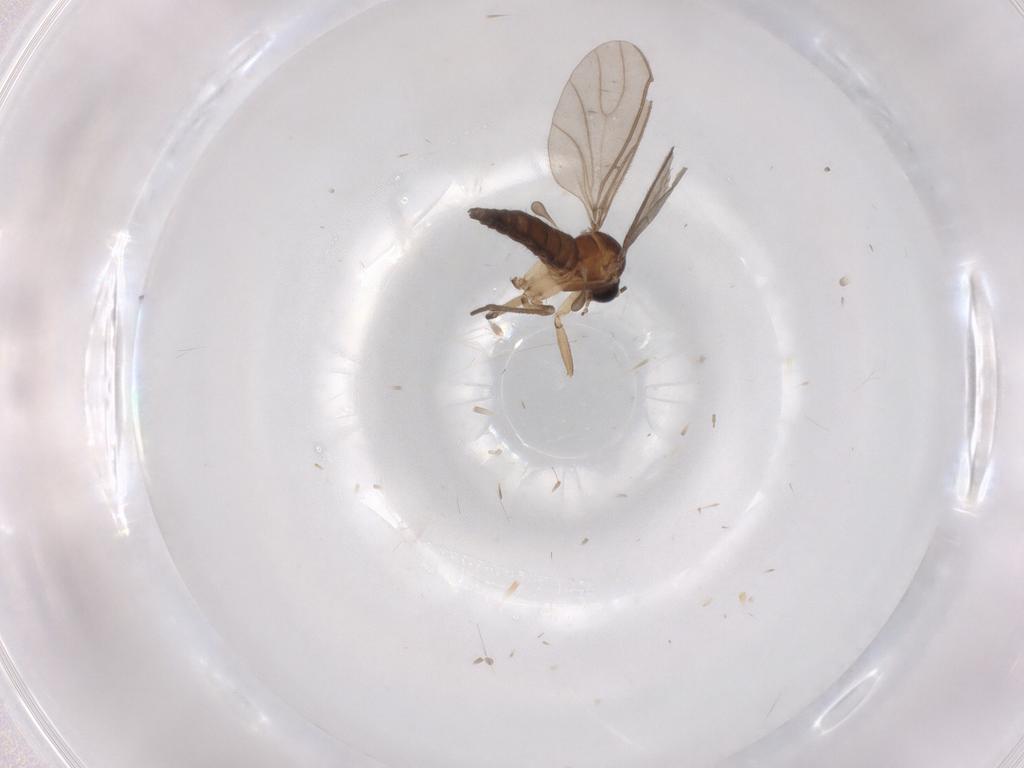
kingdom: Animalia
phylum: Arthropoda
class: Insecta
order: Diptera
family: Sciaridae
